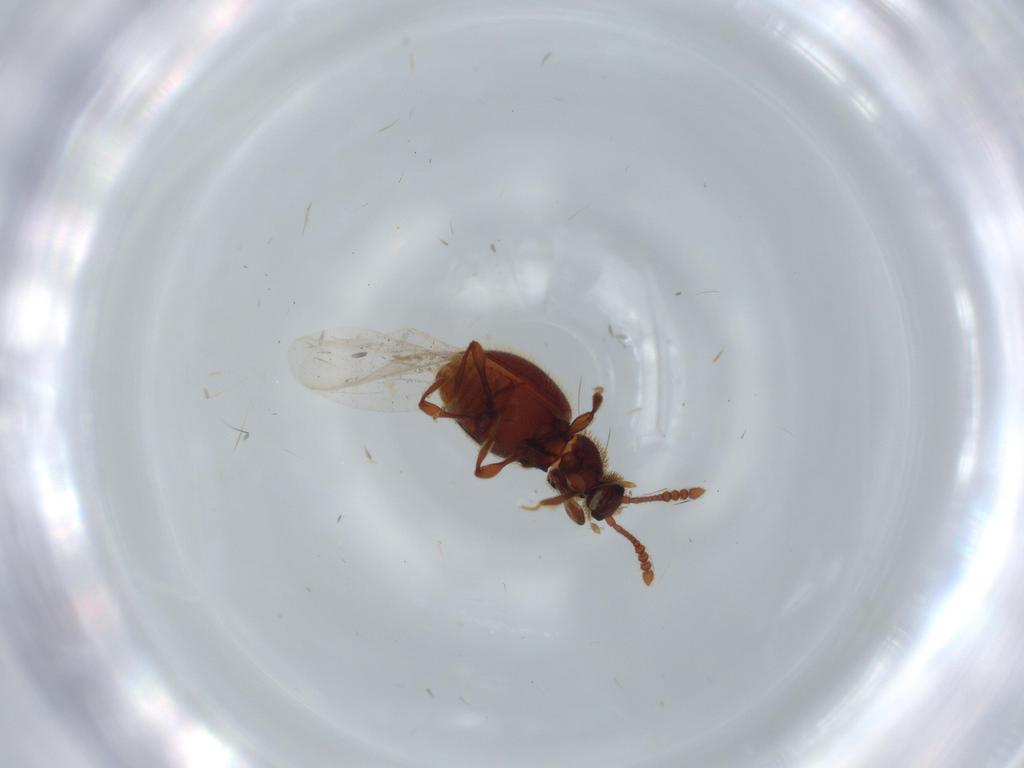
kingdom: Animalia
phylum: Arthropoda
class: Insecta
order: Coleoptera
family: Staphylinidae
